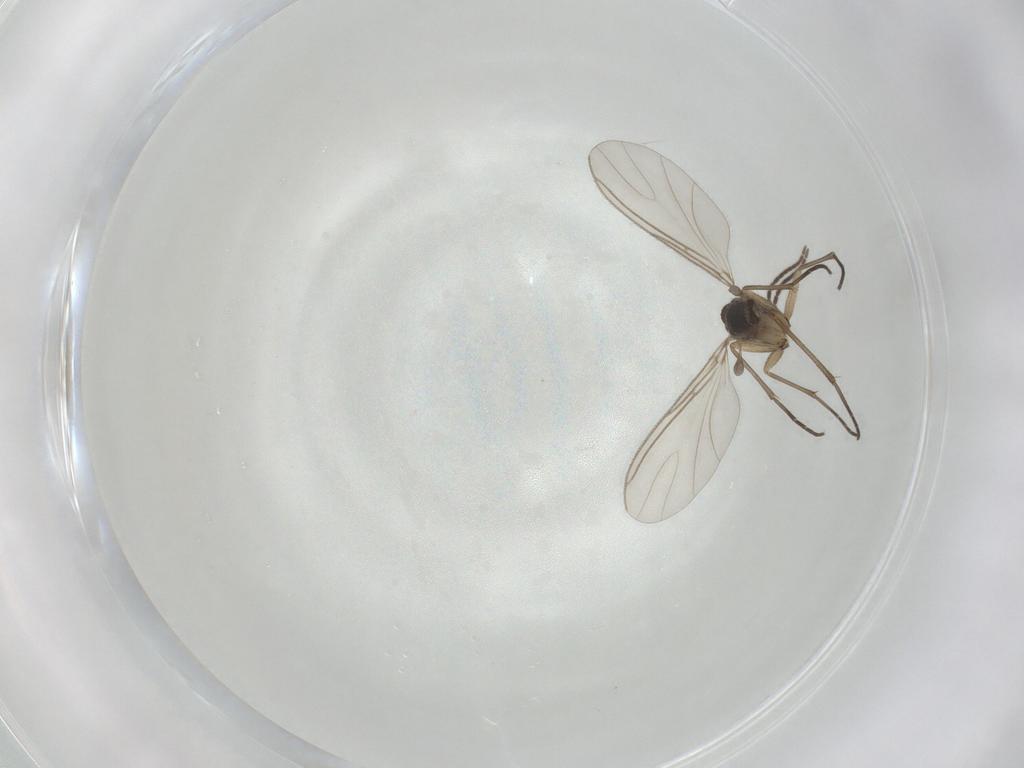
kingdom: Animalia
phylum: Arthropoda
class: Insecta
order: Diptera
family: Sciaridae
